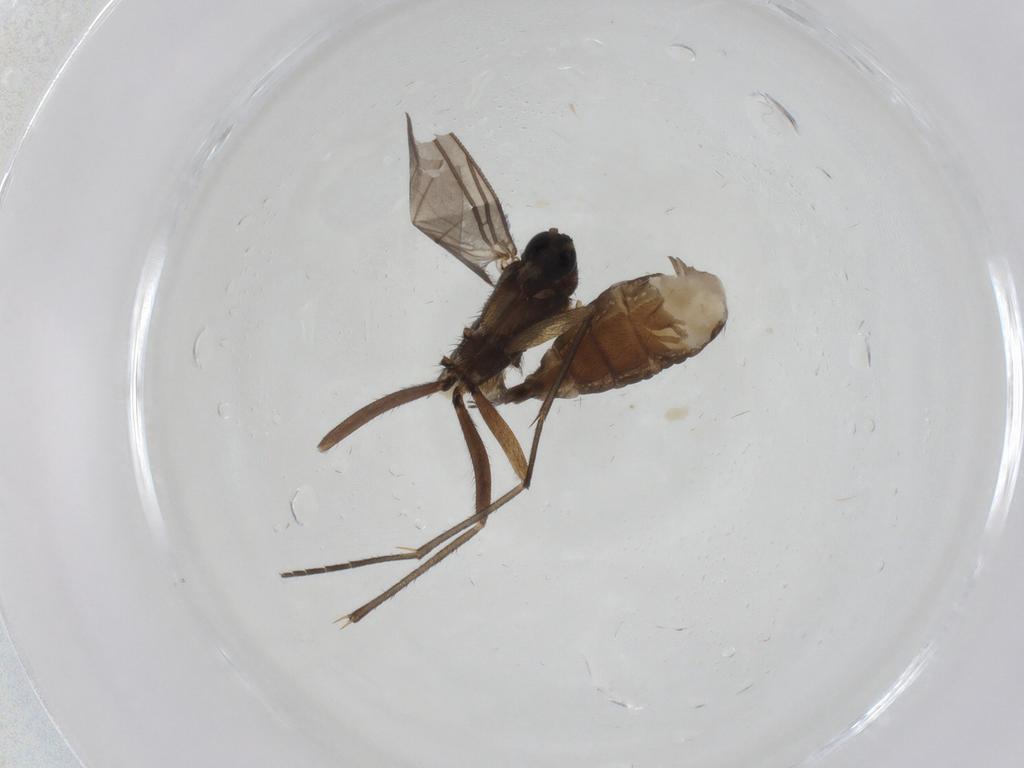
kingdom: Animalia
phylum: Arthropoda
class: Insecta
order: Diptera
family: Sciaridae
